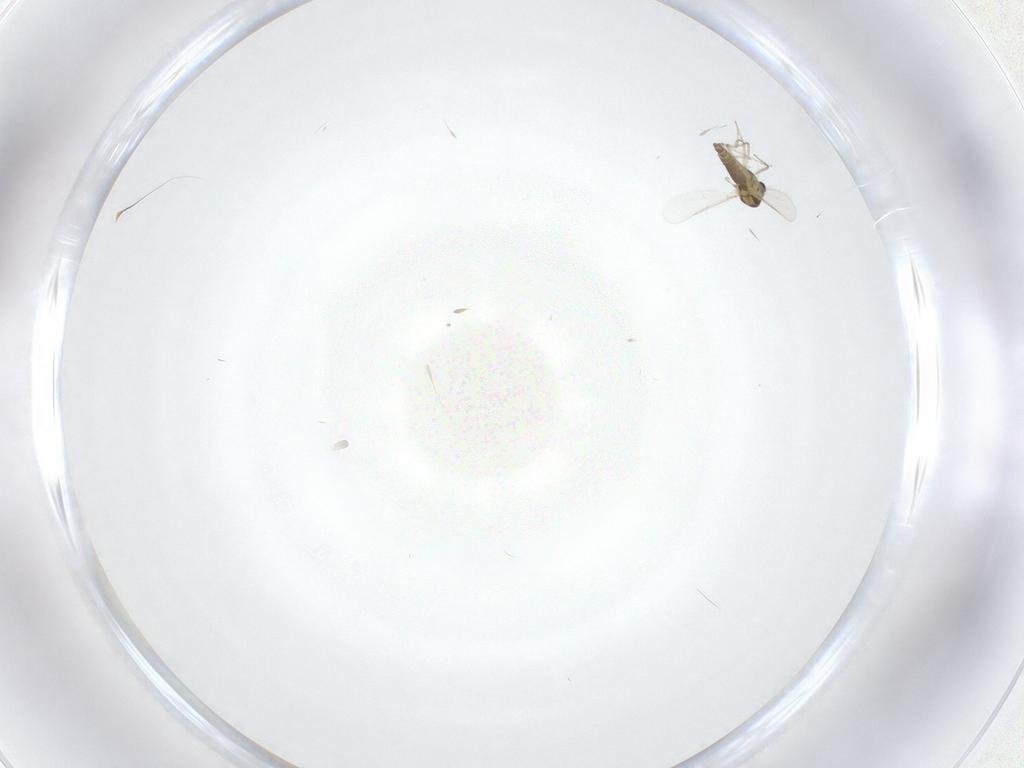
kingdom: Animalia
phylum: Arthropoda
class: Insecta
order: Diptera
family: Chironomidae
